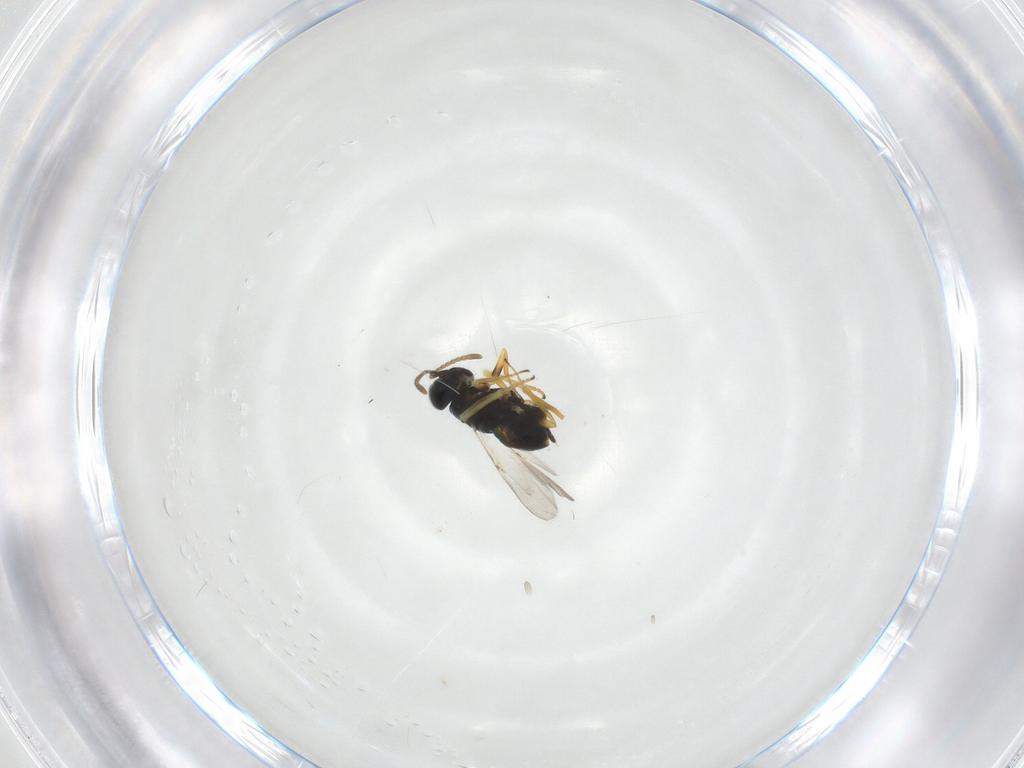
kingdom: Animalia
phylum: Arthropoda
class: Insecta
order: Hymenoptera
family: Encyrtidae
